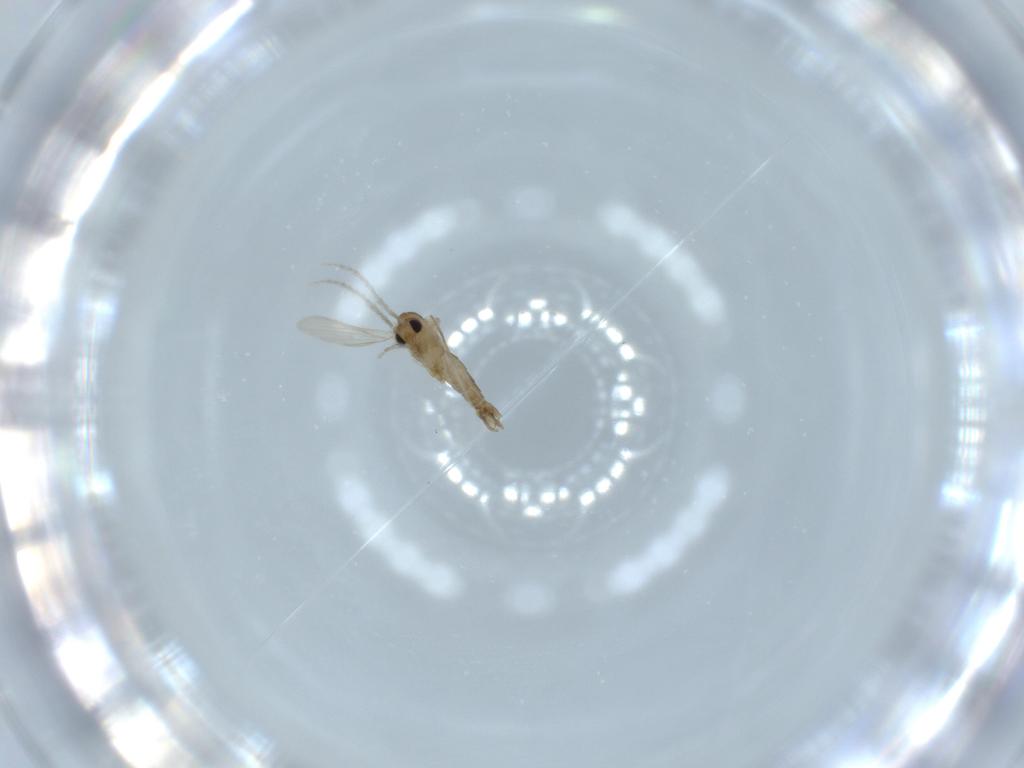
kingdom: Animalia
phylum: Arthropoda
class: Insecta
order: Diptera
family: Psychodidae
